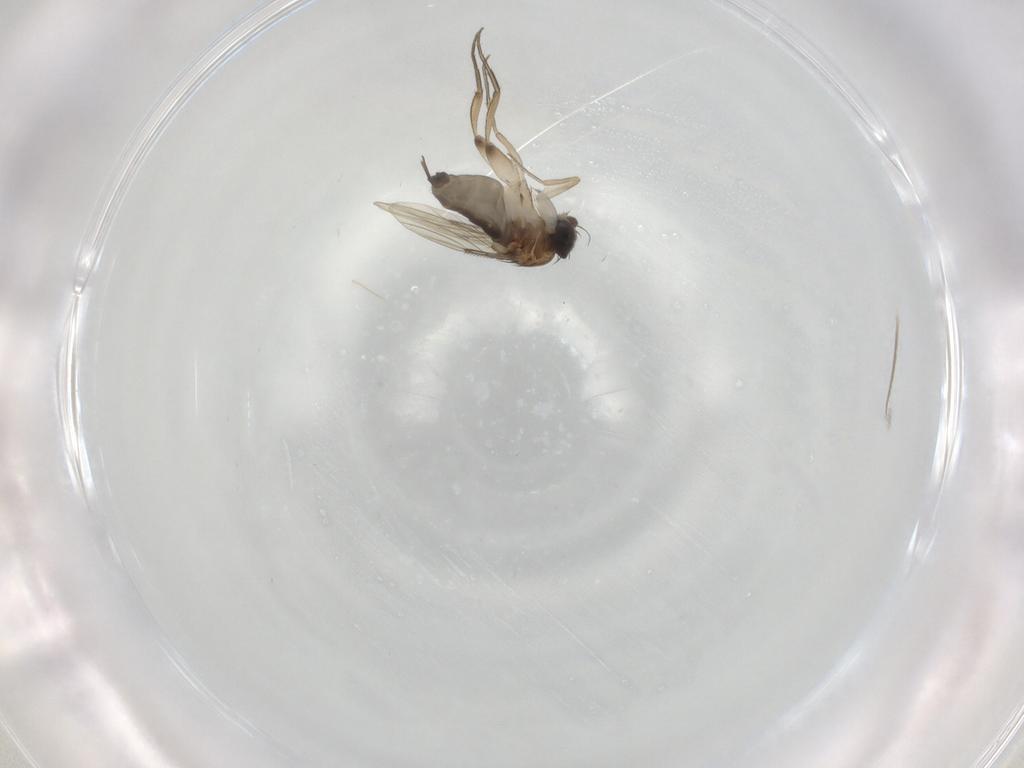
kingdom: Animalia
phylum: Arthropoda
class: Insecta
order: Diptera
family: Phoridae
